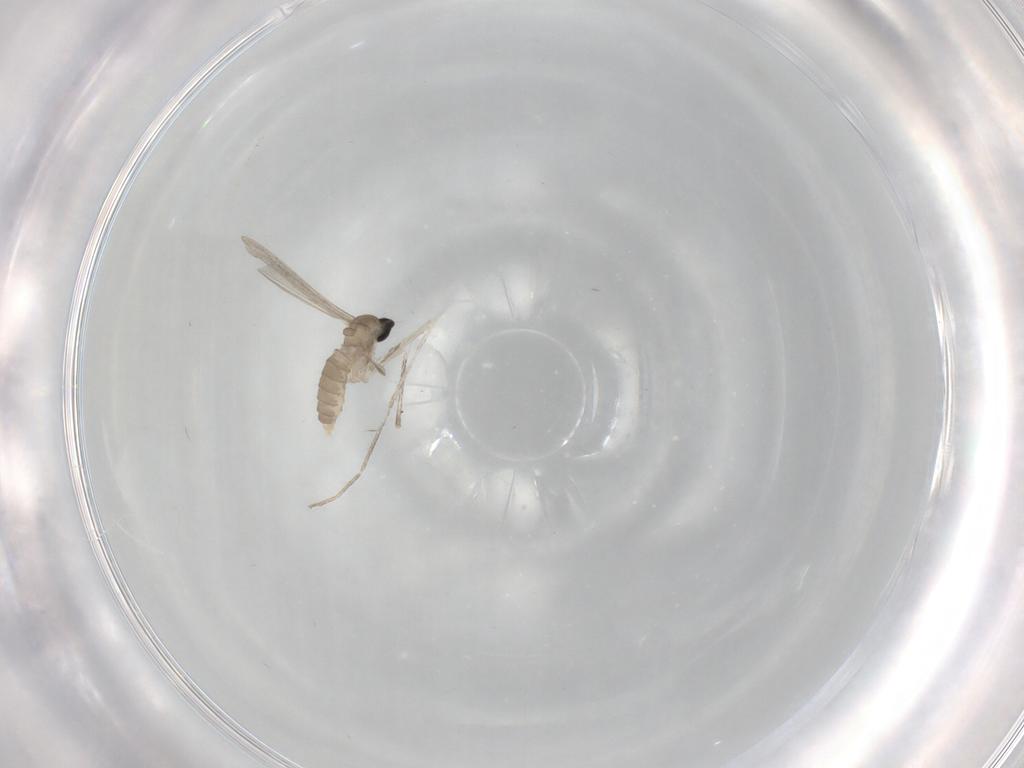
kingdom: Animalia
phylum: Arthropoda
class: Insecta
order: Diptera
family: Cecidomyiidae
